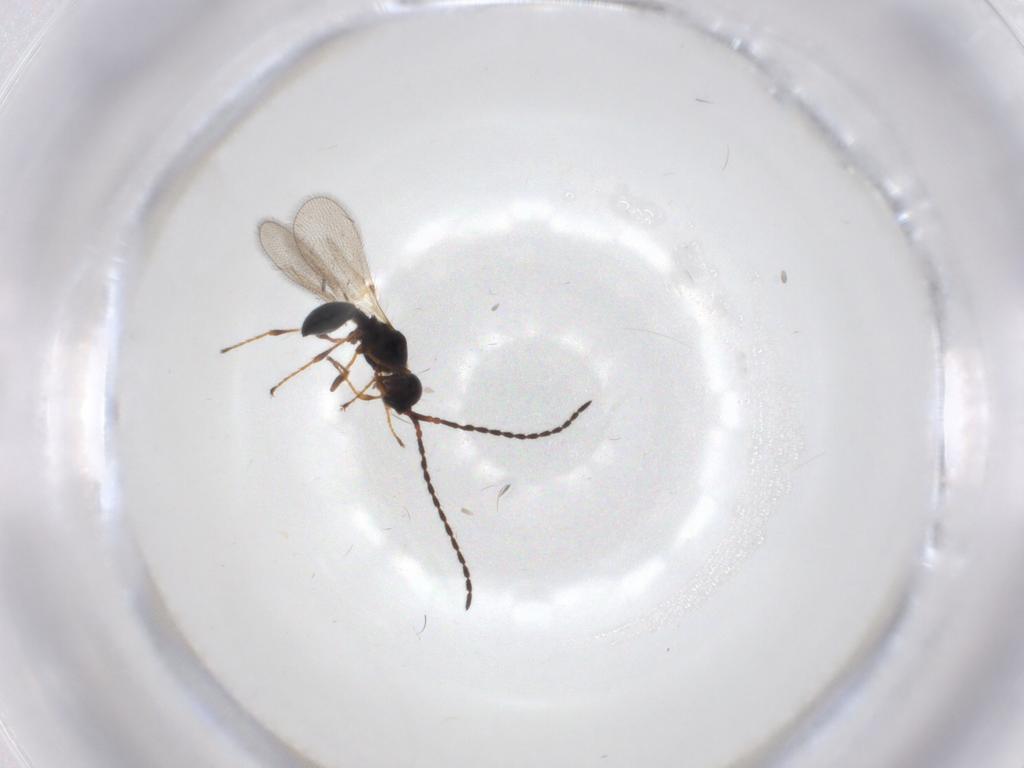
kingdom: Animalia
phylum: Arthropoda
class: Insecta
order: Hymenoptera
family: Diapriidae
